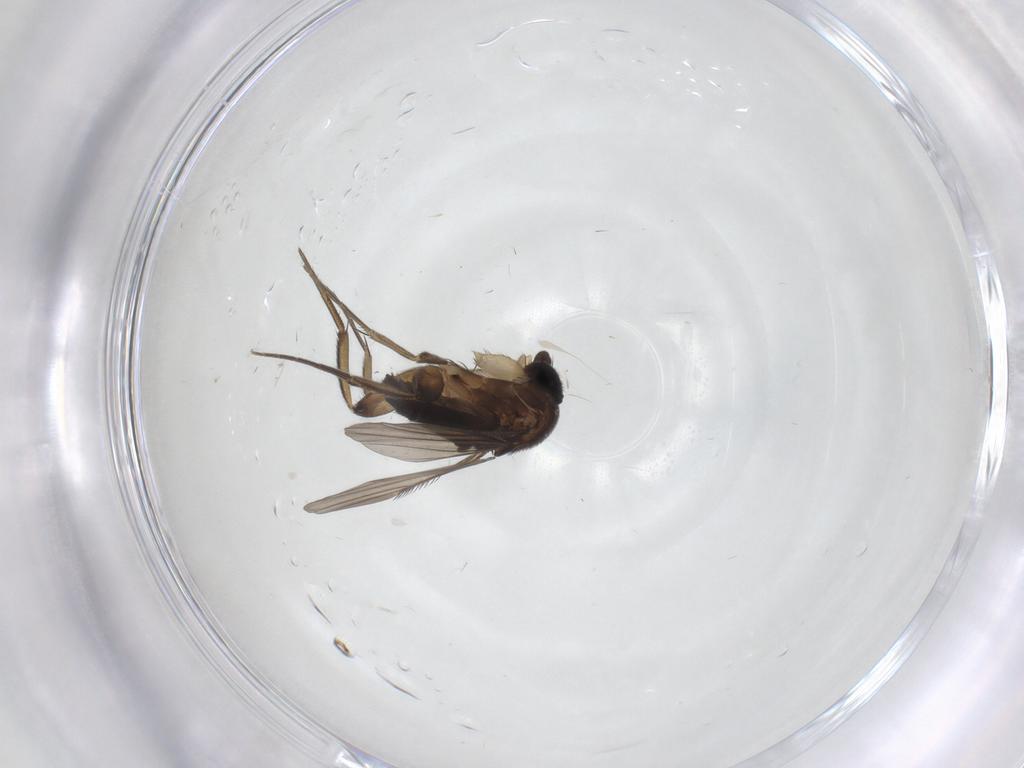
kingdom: Animalia
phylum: Arthropoda
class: Insecta
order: Diptera
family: Phoridae
